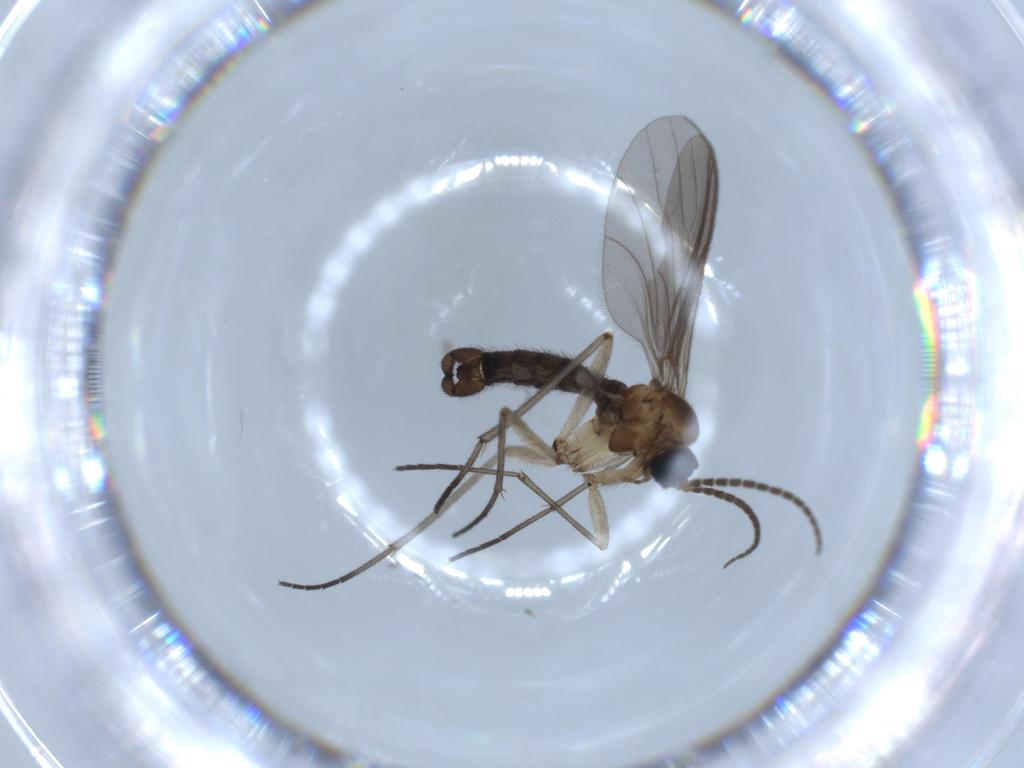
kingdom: Animalia
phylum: Arthropoda
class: Insecta
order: Diptera
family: Sciaridae
